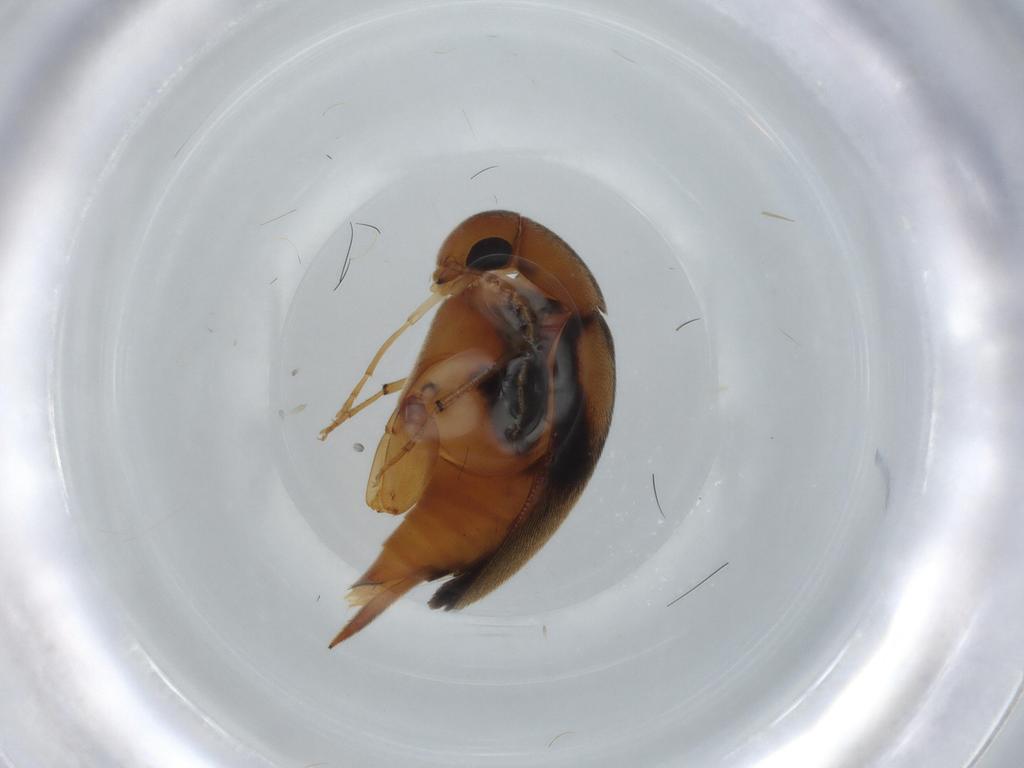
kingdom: Animalia
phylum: Arthropoda
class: Insecta
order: Coleoptera
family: Mordellidae
